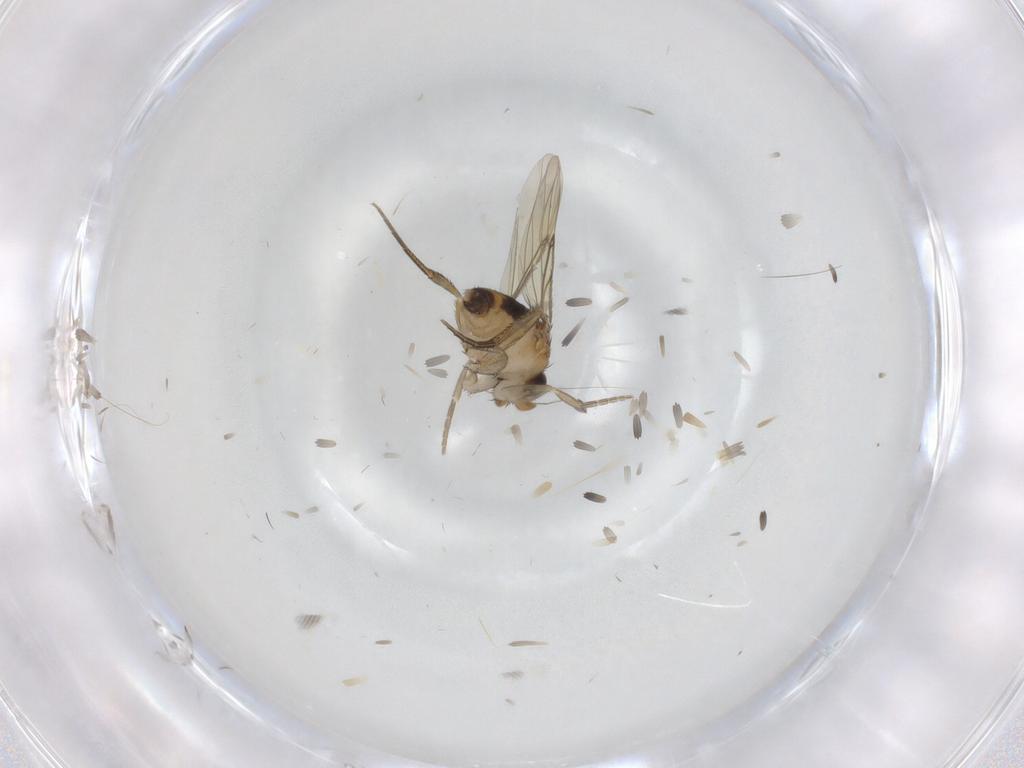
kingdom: Animalia
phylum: Arthropoda
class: Insecta
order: Diptera
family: Phoridae
